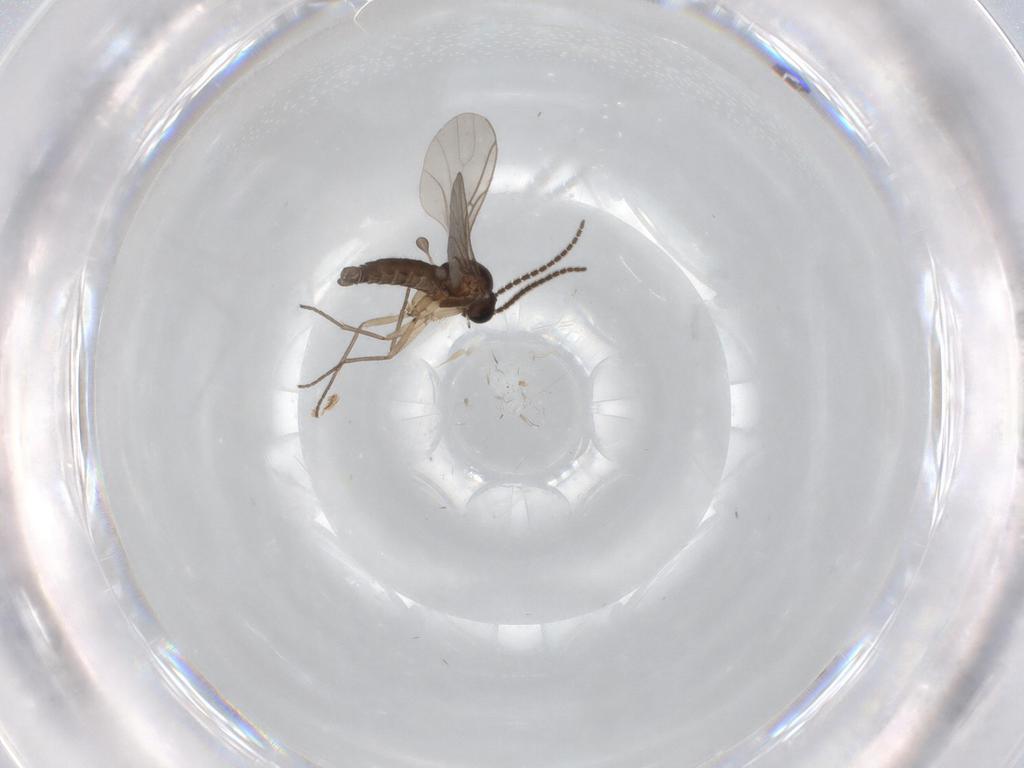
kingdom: Animalia
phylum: Arthropoda
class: Insecta
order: Diptera
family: Sciaridae
